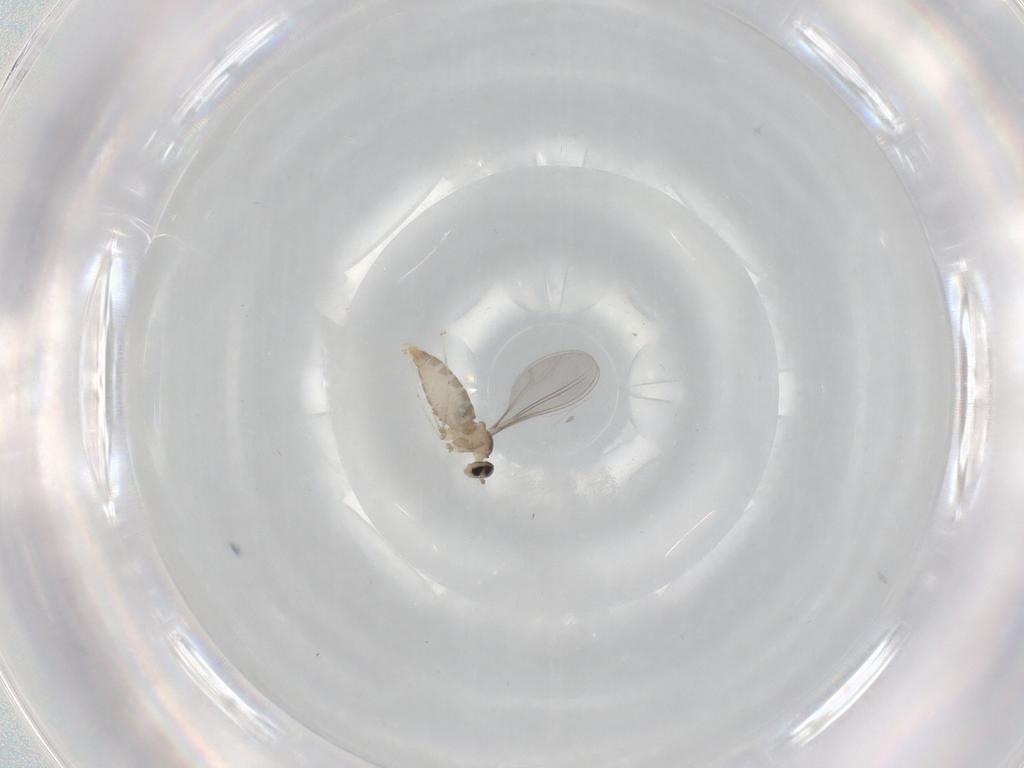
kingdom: Animalia
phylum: Arthropoda
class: Insecta
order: Diptera
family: Cecidomyiidae
